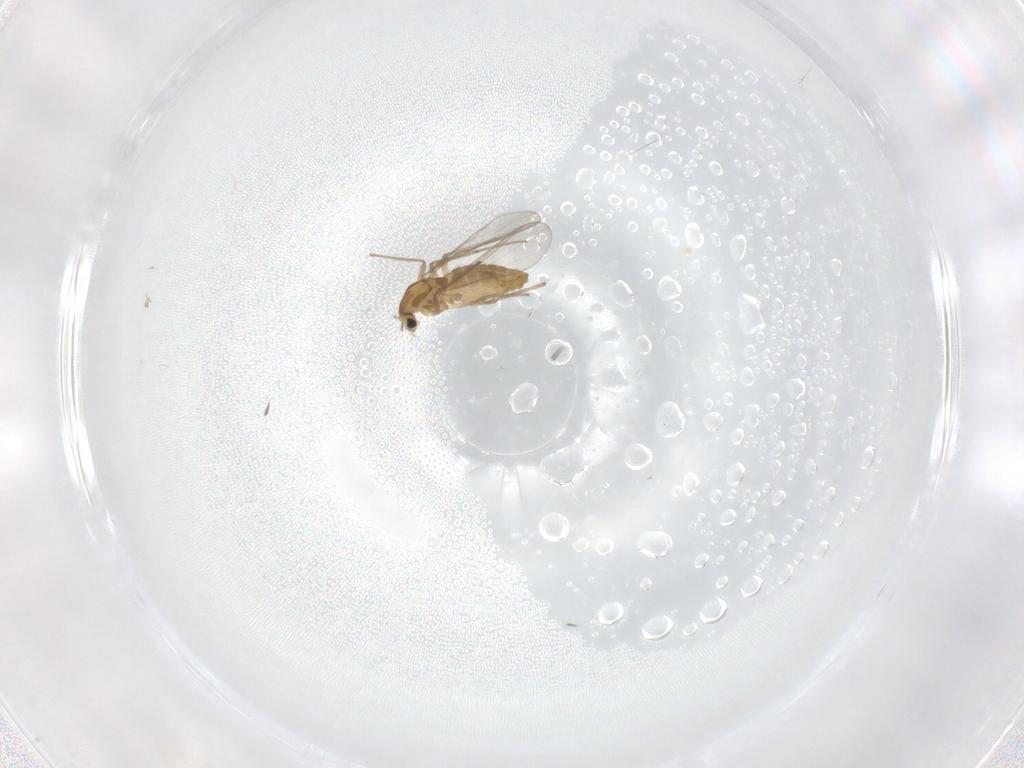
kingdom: Animalia
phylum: Arthropoda
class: Insecta
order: Diptera
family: Chironomidae
